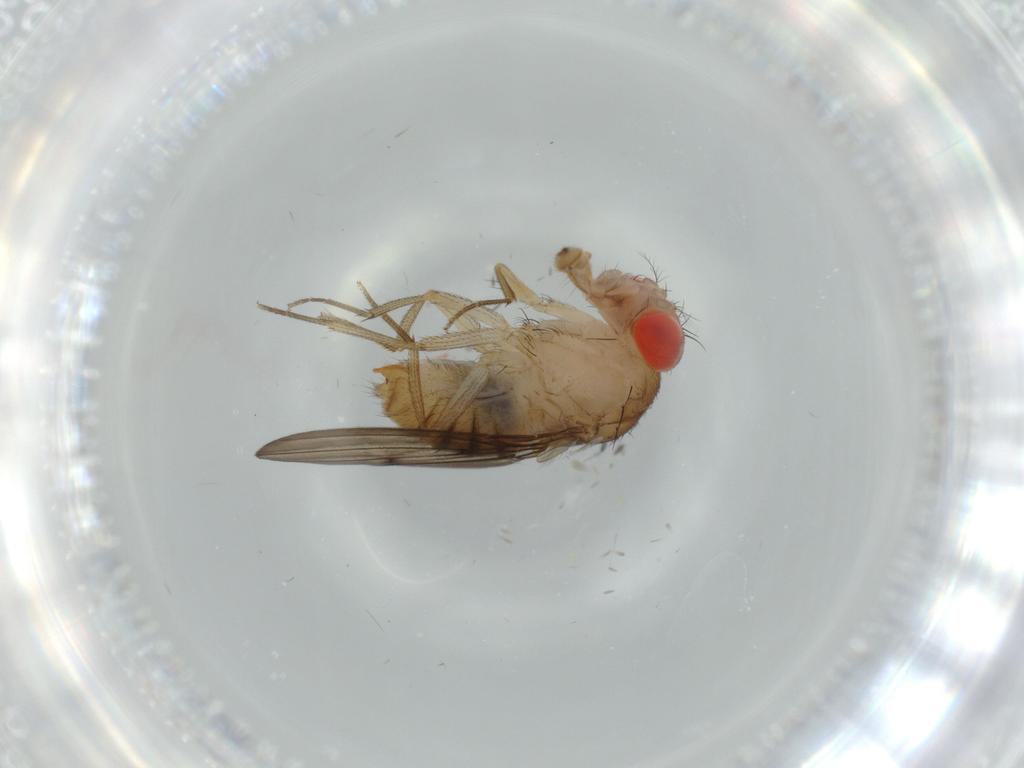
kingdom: Animalia
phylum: Arthropoda
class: Insecta
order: Diptera
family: Drosophilidae
